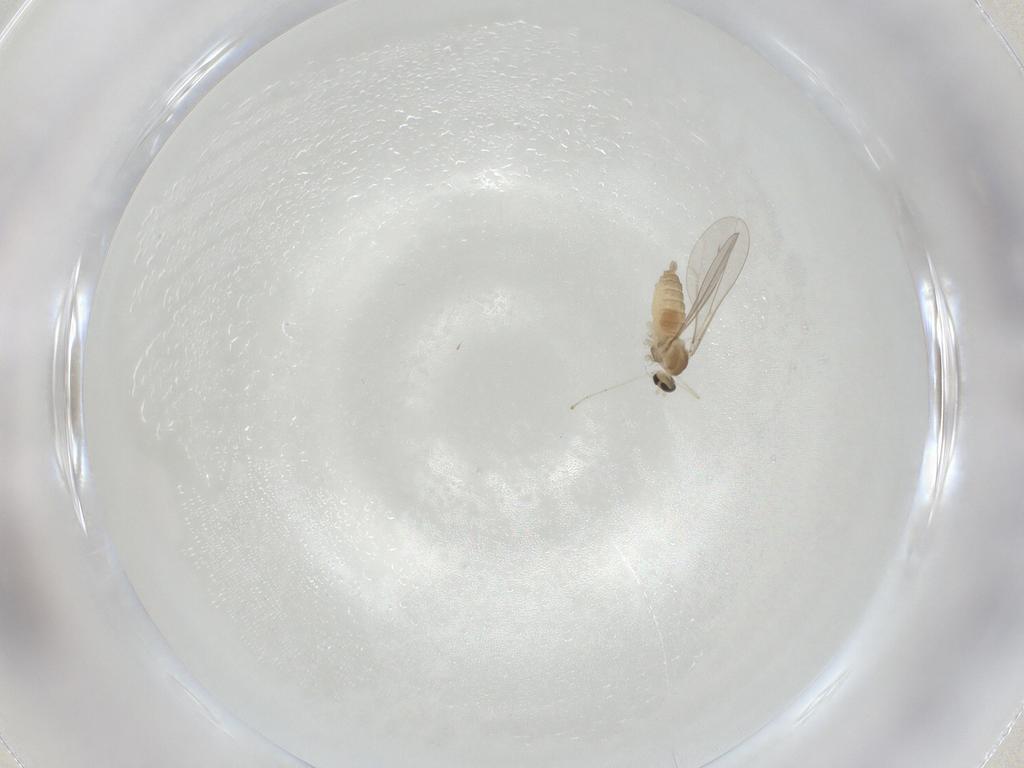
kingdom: Animalia
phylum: Arthropoda
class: Insecta
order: Diptera
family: Cecidomyiidae
